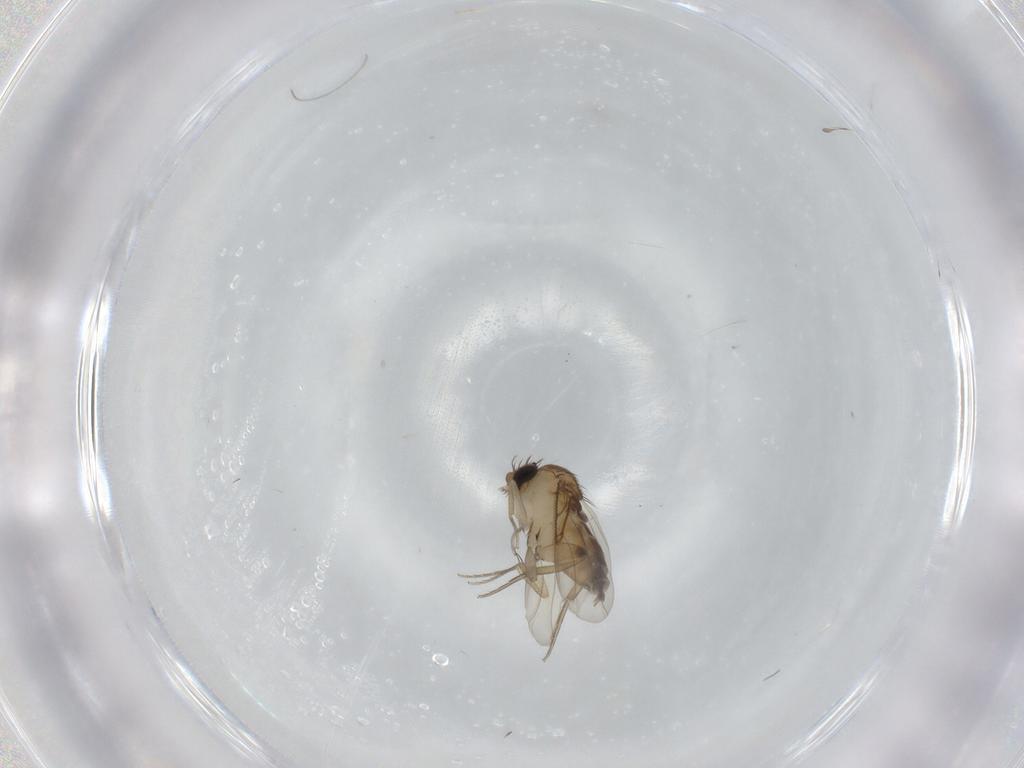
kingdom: Animalia
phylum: Arthropoda
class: Insecta
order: Diptera
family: Phoridae
